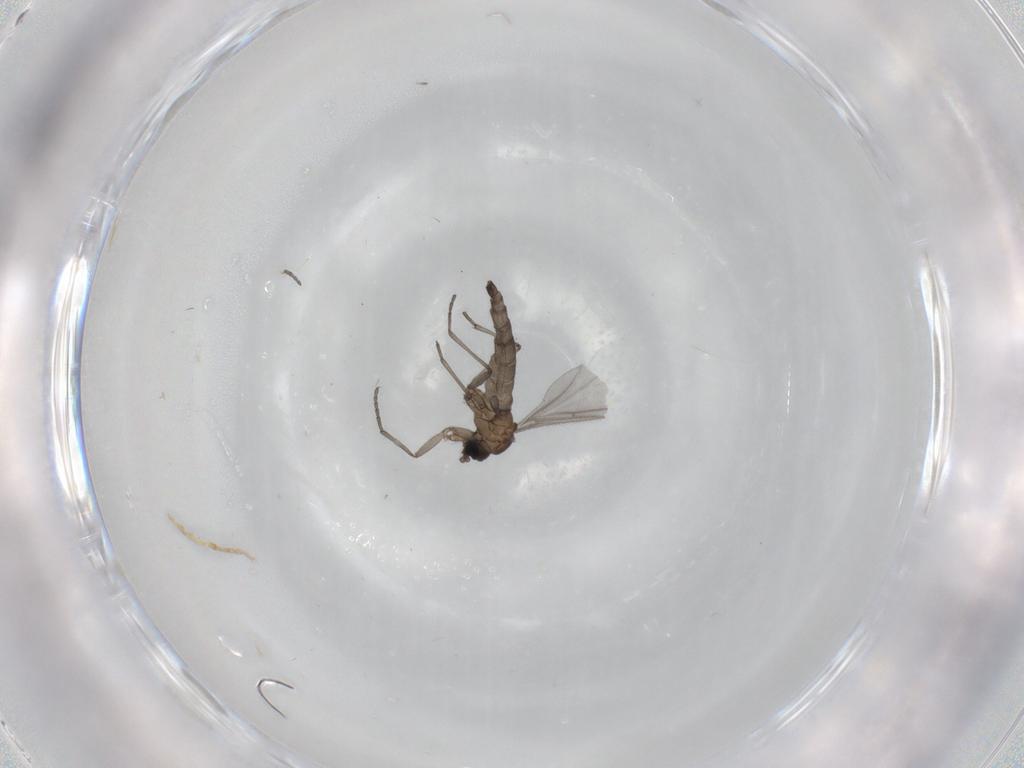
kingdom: Animalia
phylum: Arthropoda
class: Insecta
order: Diptera
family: Sciaridae
